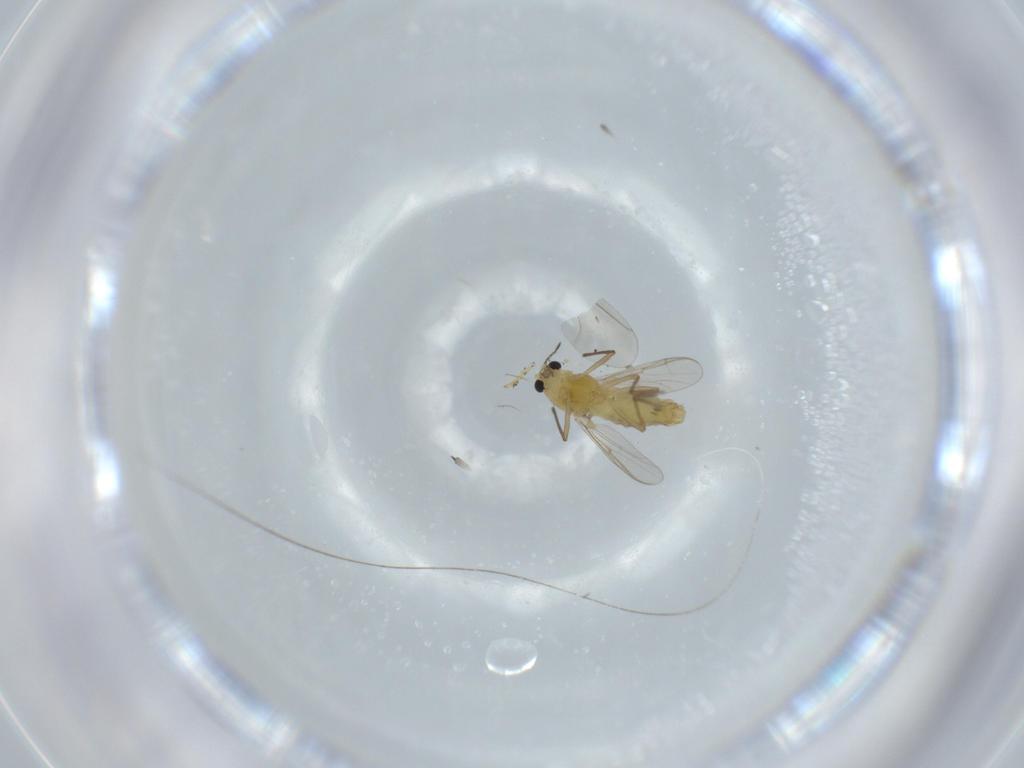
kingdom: Animalia
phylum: Arthropoda
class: Insecta
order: Diptera
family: Chironomidae
